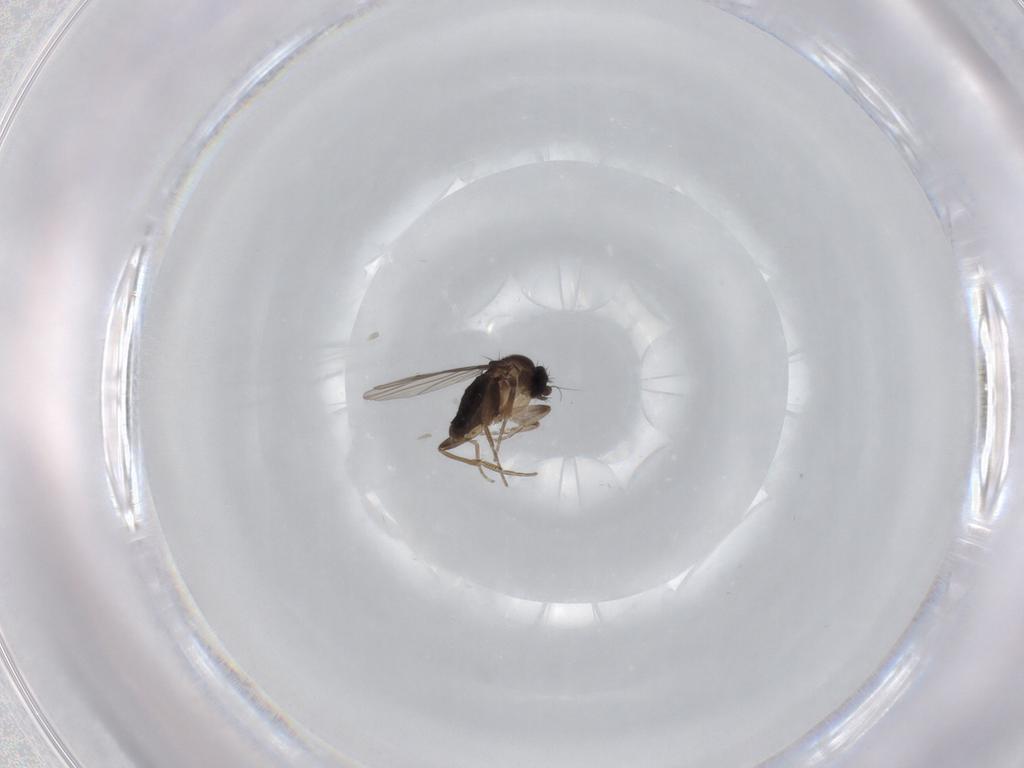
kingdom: Animalia
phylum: Arthropoda
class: Insecta
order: Diptera
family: Phoridae
